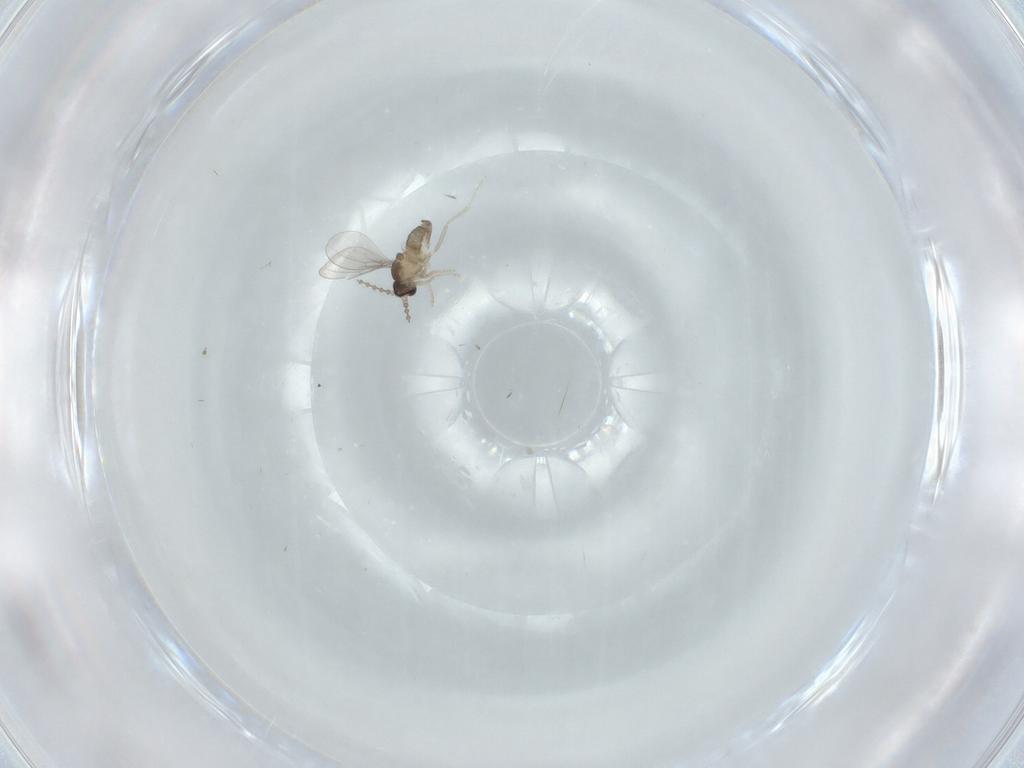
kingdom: Animalia
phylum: Arthropoda
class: Insecta
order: Diptera
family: Cecidomyiidae
